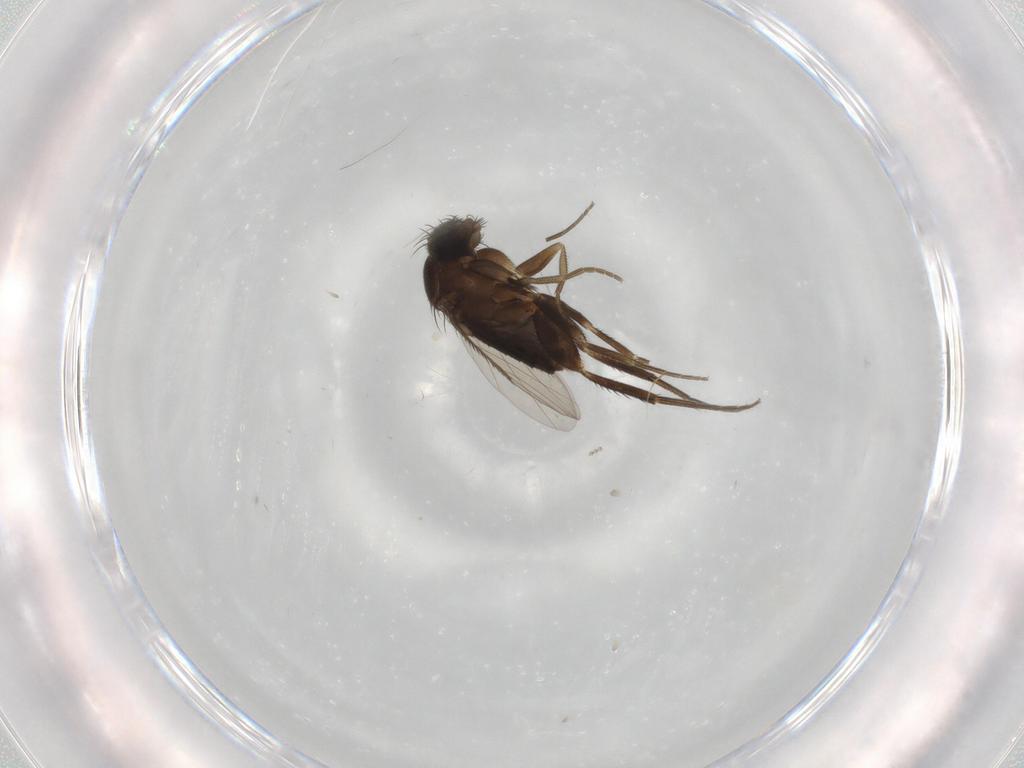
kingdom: Animalia
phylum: Arthropoda
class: Insecta
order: Diptera
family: Phoridae
